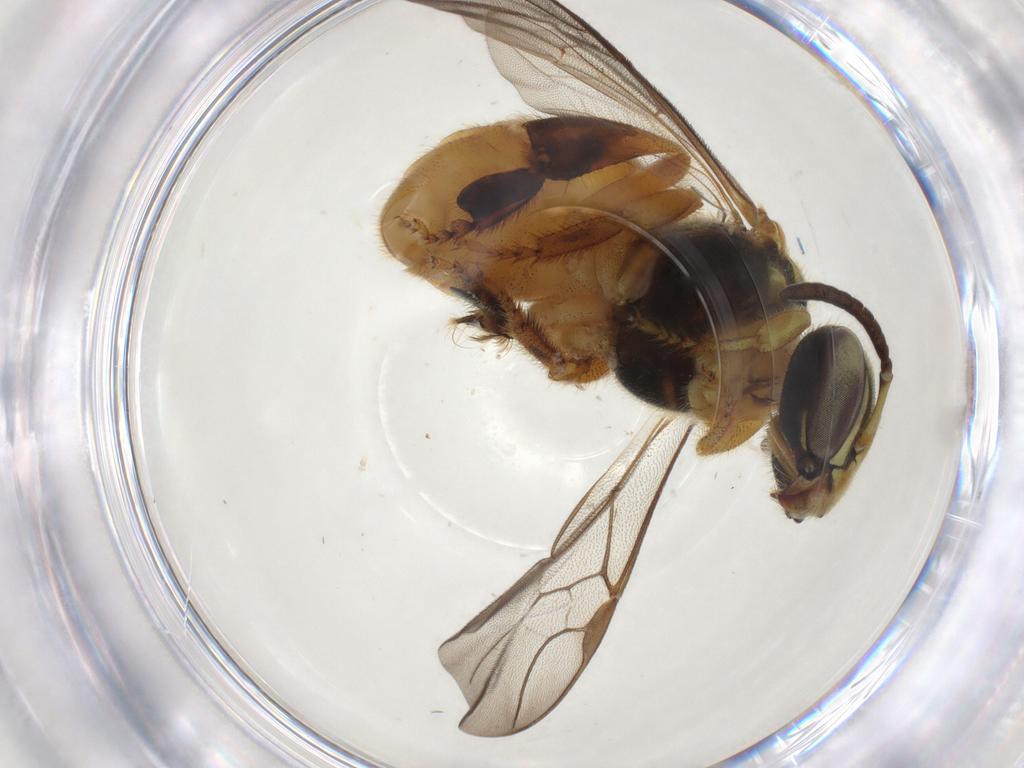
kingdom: Animalia
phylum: Arthropoda
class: Insecta
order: Hymenoptera
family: Apidae
